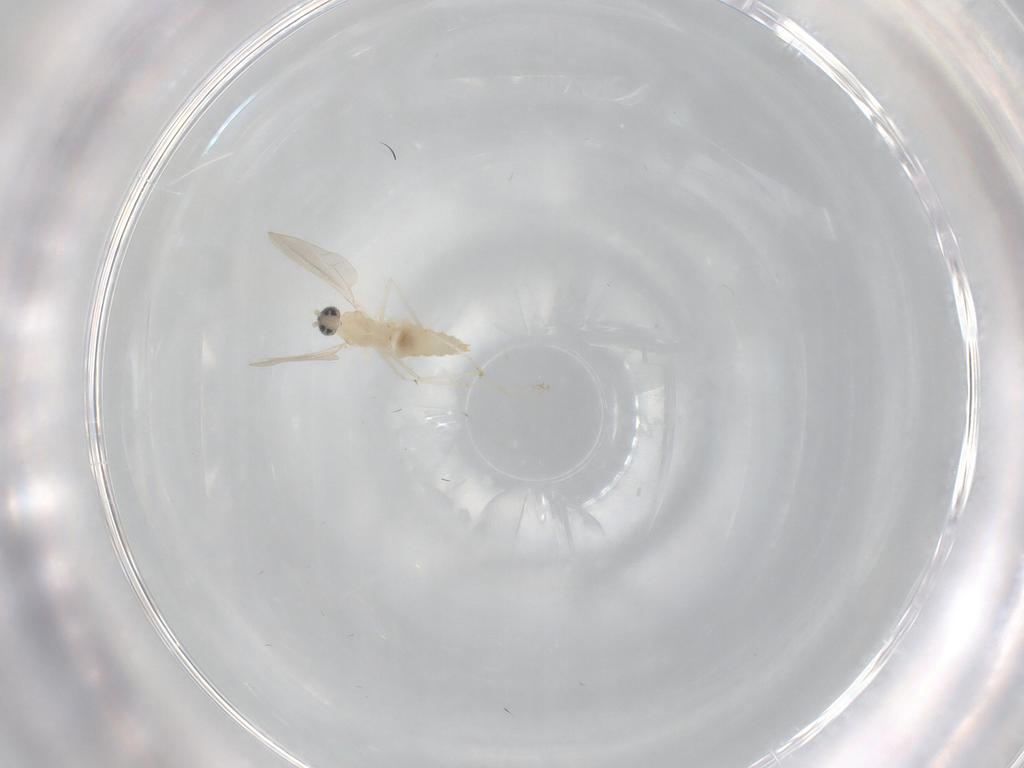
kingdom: Animalia
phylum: Arthropoda
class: Insecta
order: Diptera
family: Cecidomyiidae
